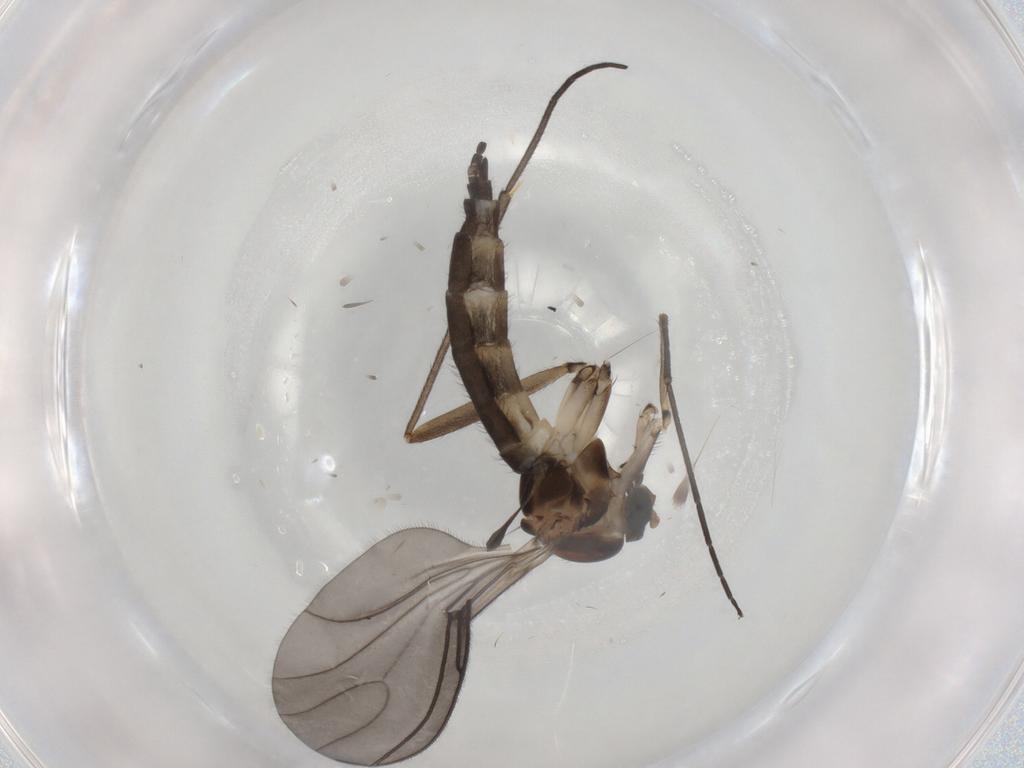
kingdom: Animalia
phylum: Arthropoda
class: Insecta
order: Diptera
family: Sciaridae
